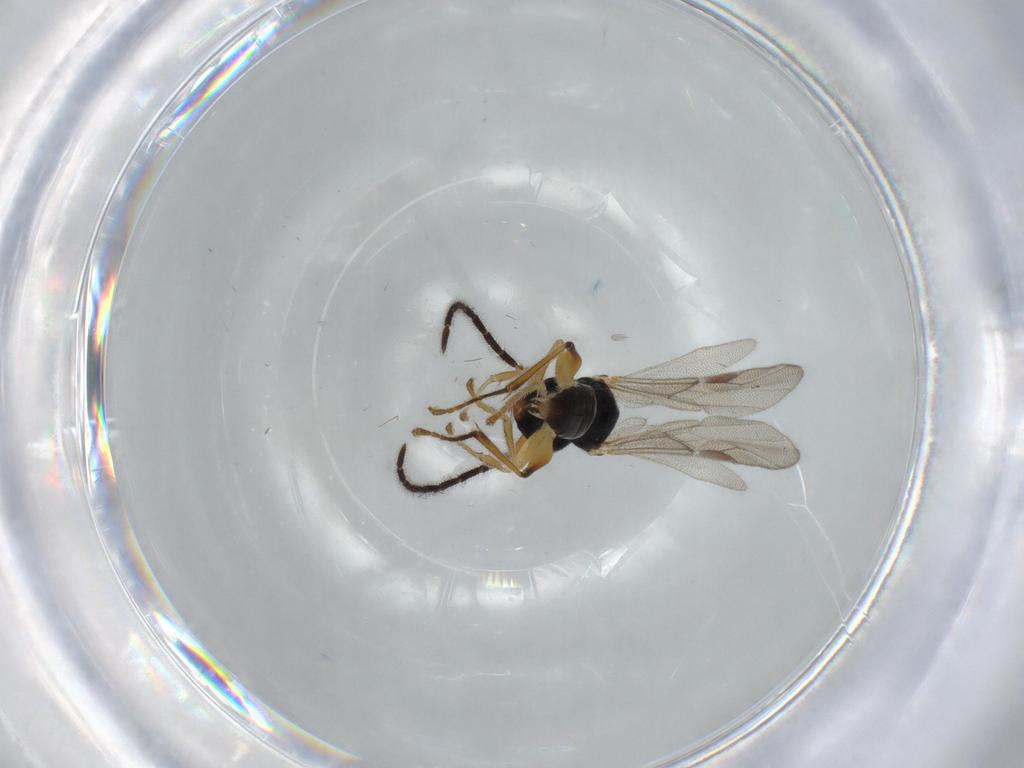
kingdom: Animalia
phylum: Arthropoda
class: Insecta
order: Hymenoptera
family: Dryinidae
